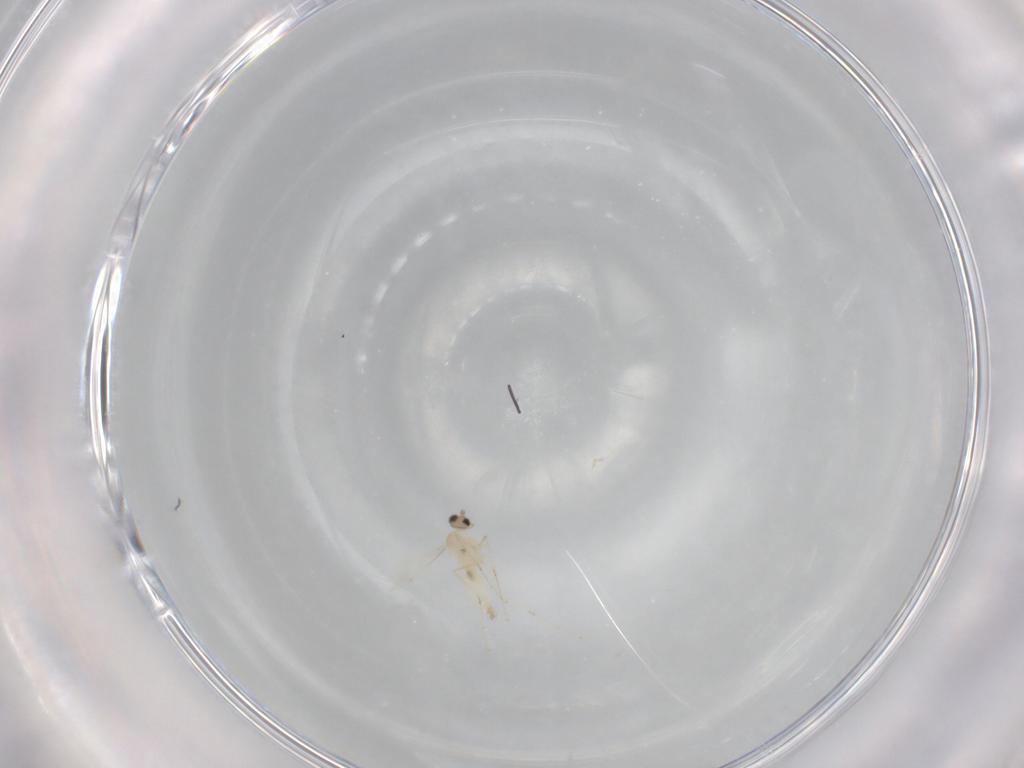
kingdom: Animalia
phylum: Arthropoda
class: Insecta
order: Diptera
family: Cecidomyiidae
